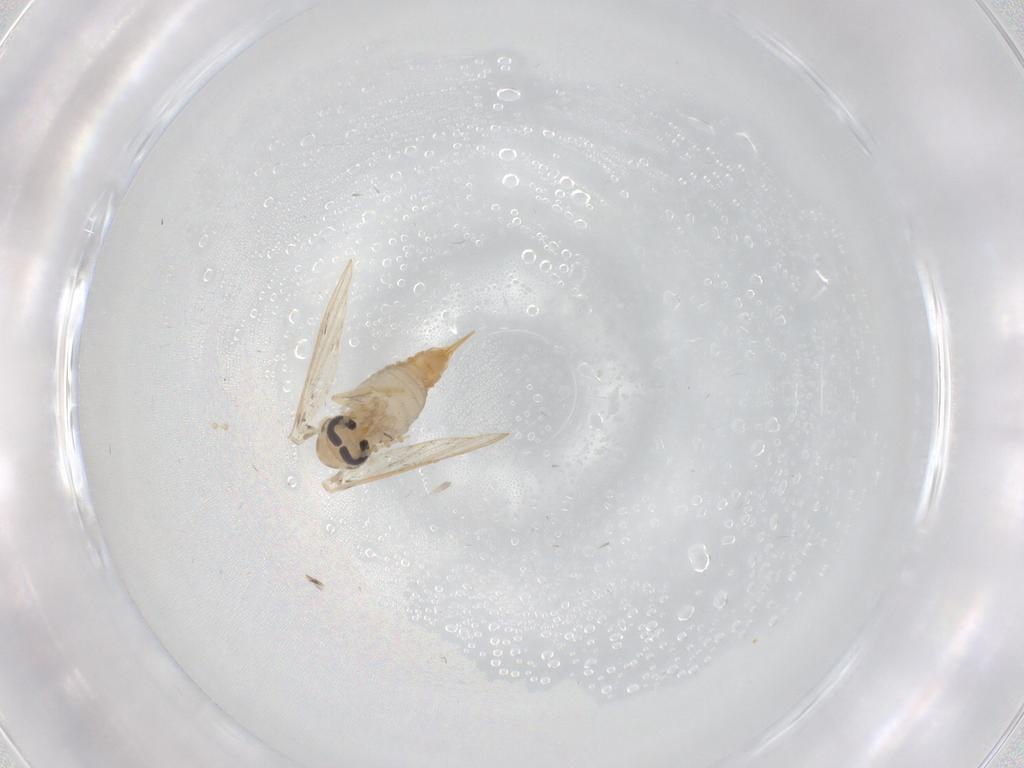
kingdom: Animalia
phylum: Arthropoda
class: Insecta
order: Diptera
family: Psychodidae
